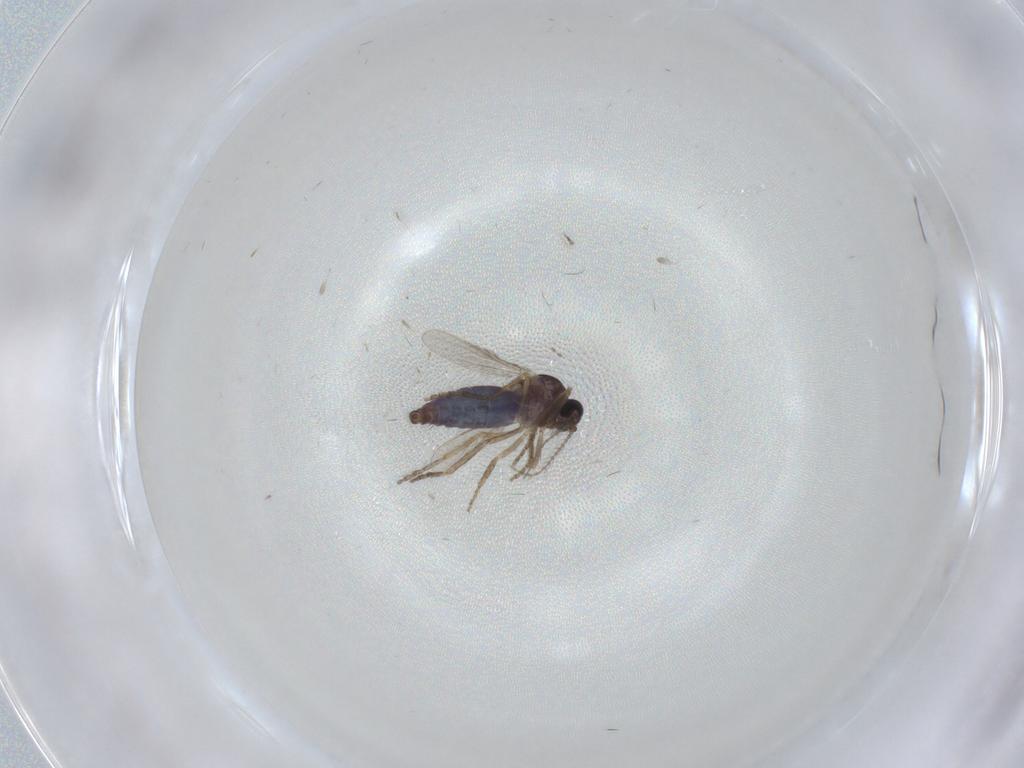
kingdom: Animalia
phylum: Arthropoda
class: Insecta
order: Diptera
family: Ceratopogonidae
